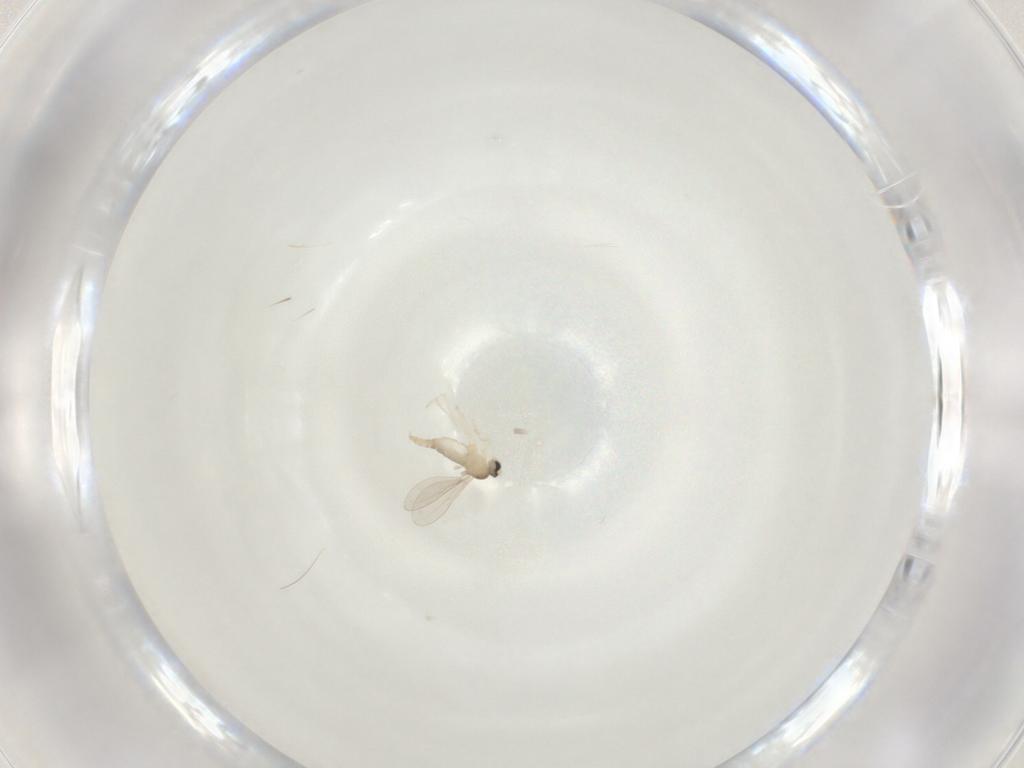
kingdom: Animalia
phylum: Arthropoda
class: Insecta
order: Diptera
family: Cecidomyiidae
